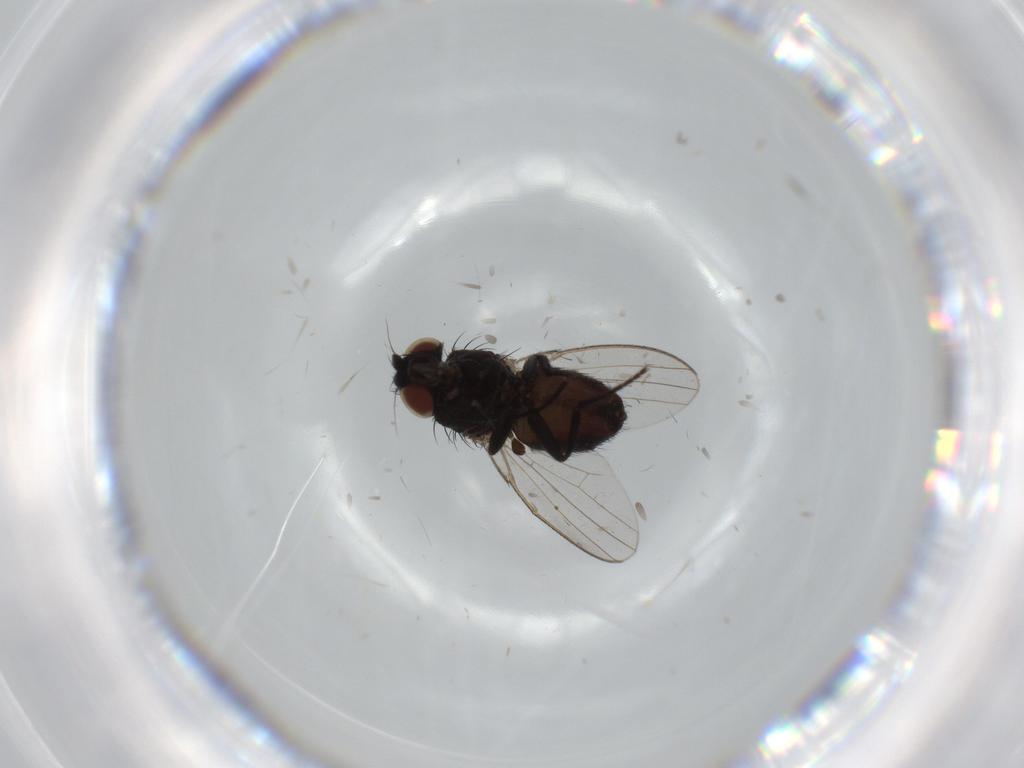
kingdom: Animalia
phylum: Arthropoda
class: Insecta
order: Diptera
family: Milichiidae
